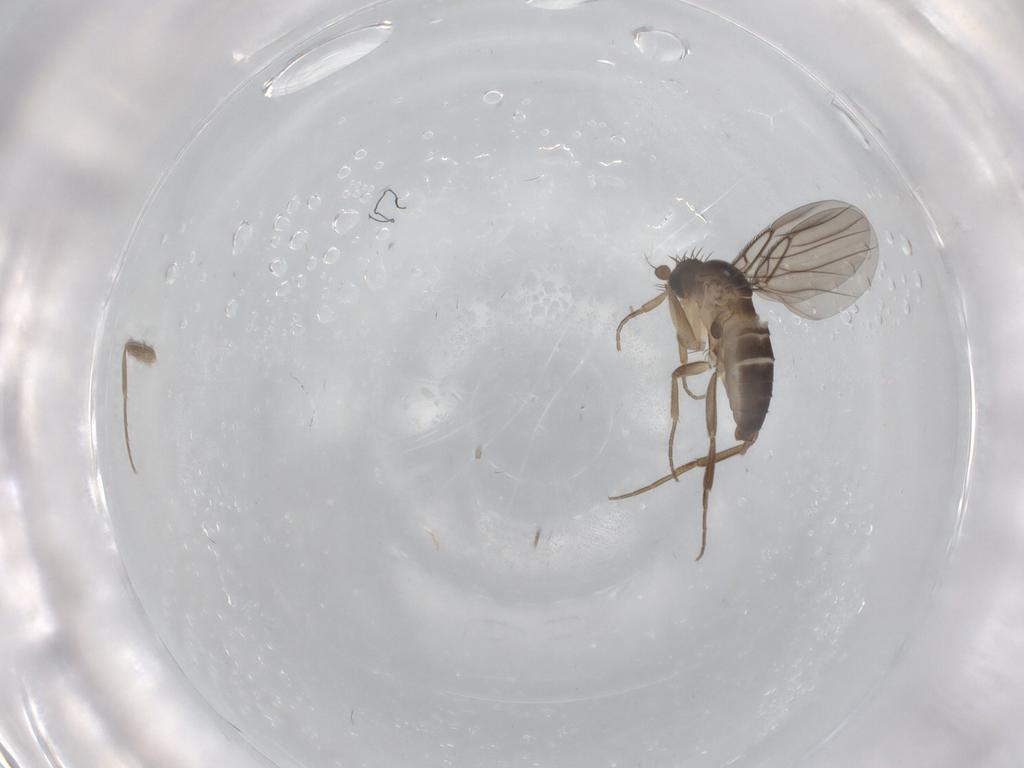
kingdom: Animalia
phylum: Arthropoda
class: Insecta
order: Diptera
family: Phoridae
